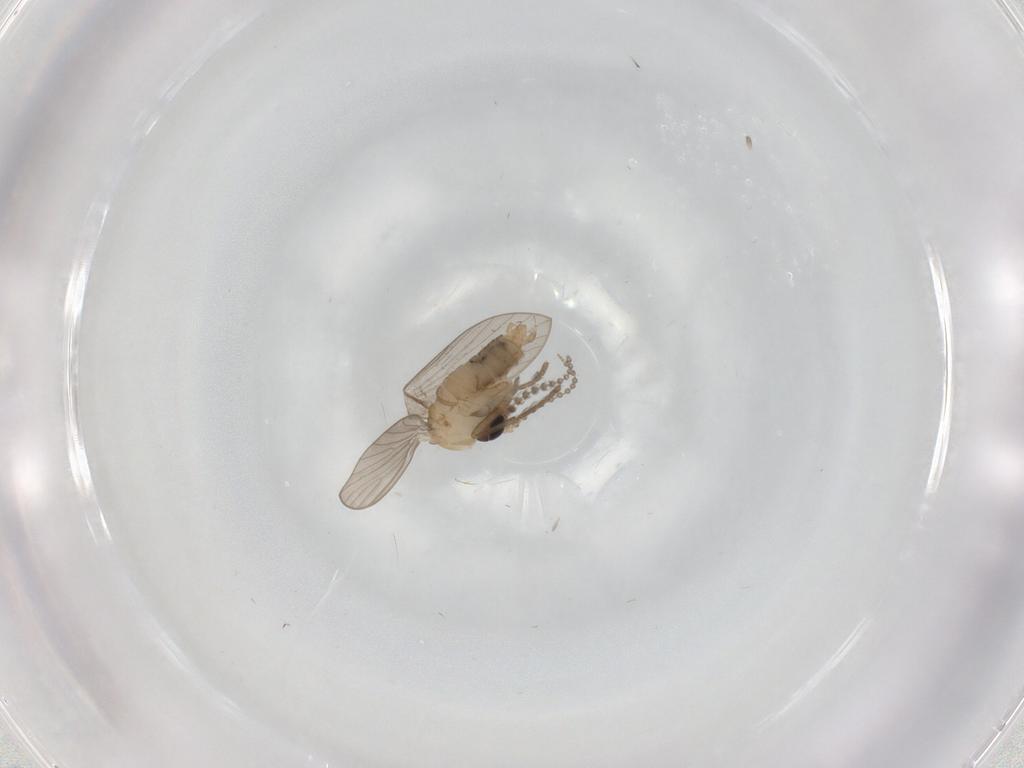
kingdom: Animalia
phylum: Arthropoda
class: Insecta
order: Diptera
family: Psychodidae
